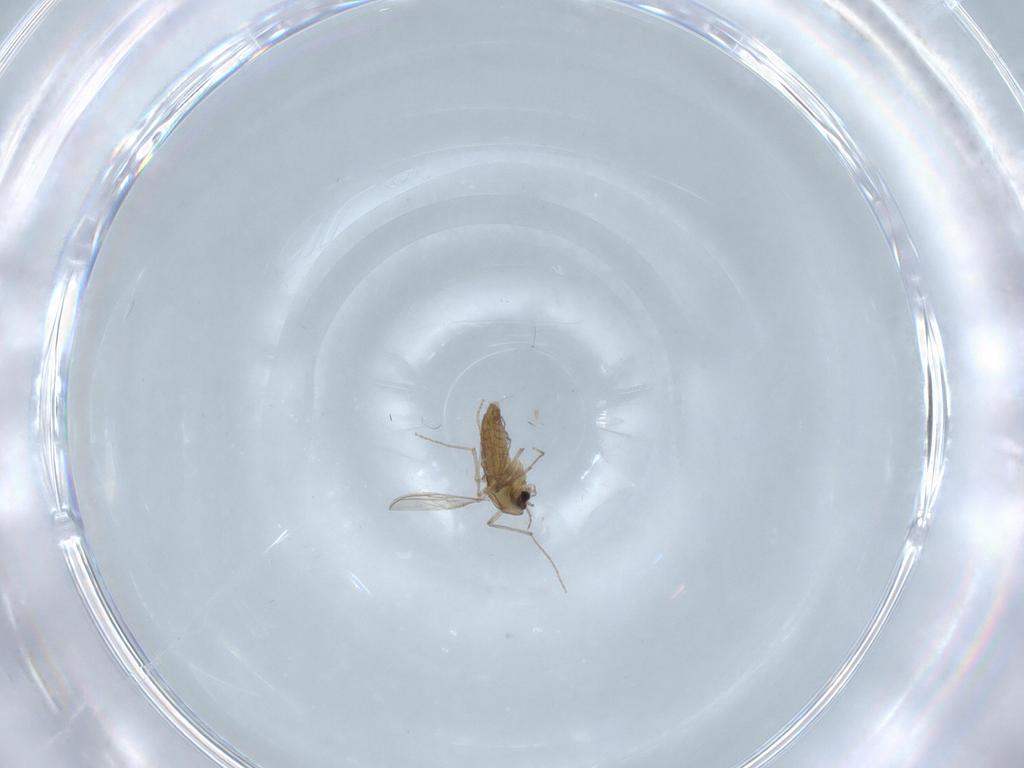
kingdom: Animalia
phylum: Arthropoda
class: Insecta
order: Diptera
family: Chironomidae
